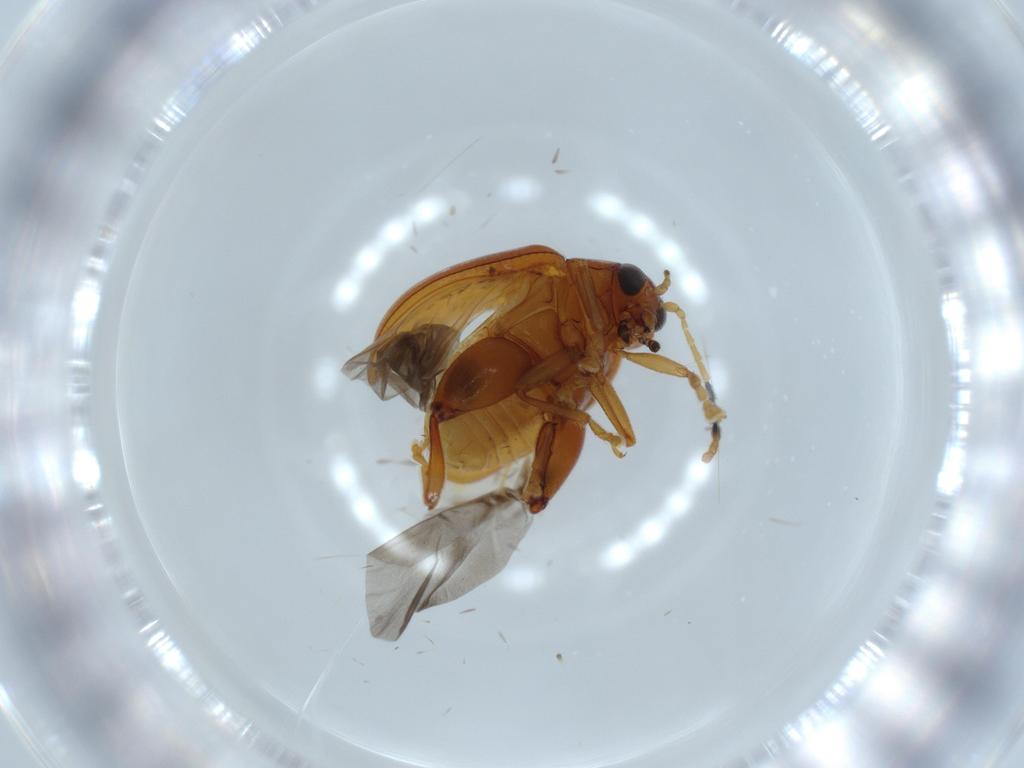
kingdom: Animalia
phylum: Arthropoda
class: Insecta
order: Coleoptera
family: Chrysomelidae
